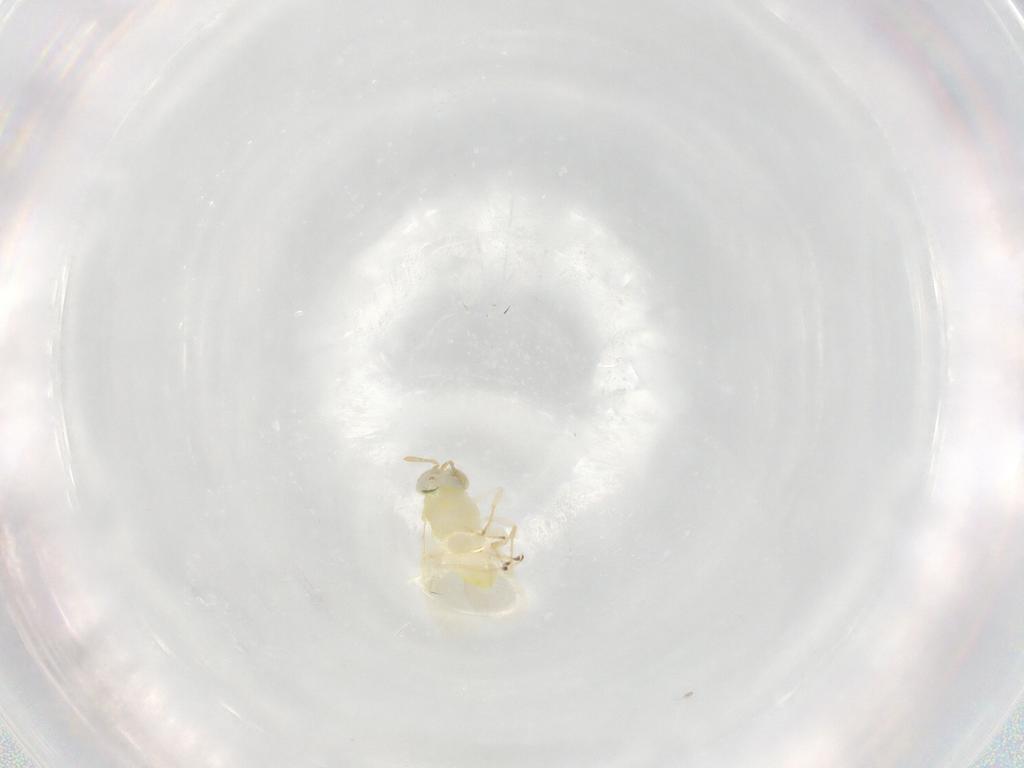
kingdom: Animalia
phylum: Arthropoda
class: Insecta
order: Hymenoptera
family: Aphelinidae
